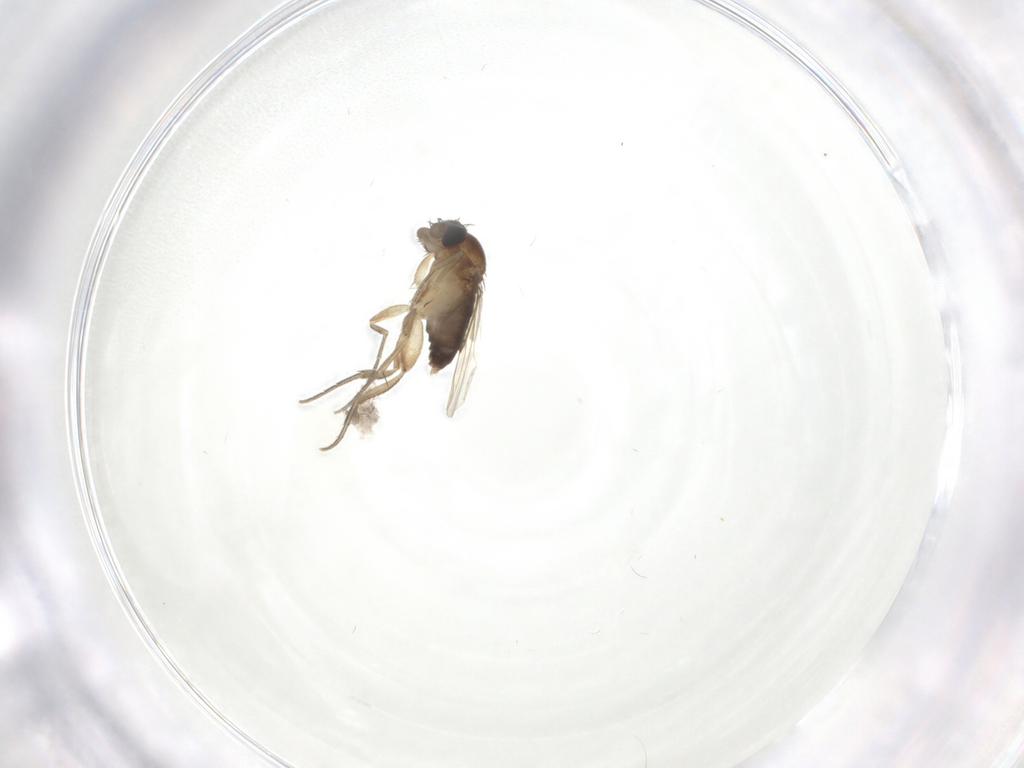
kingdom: Animalia
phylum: Arthropoda
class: Insecta
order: Diptera
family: Phoridae
